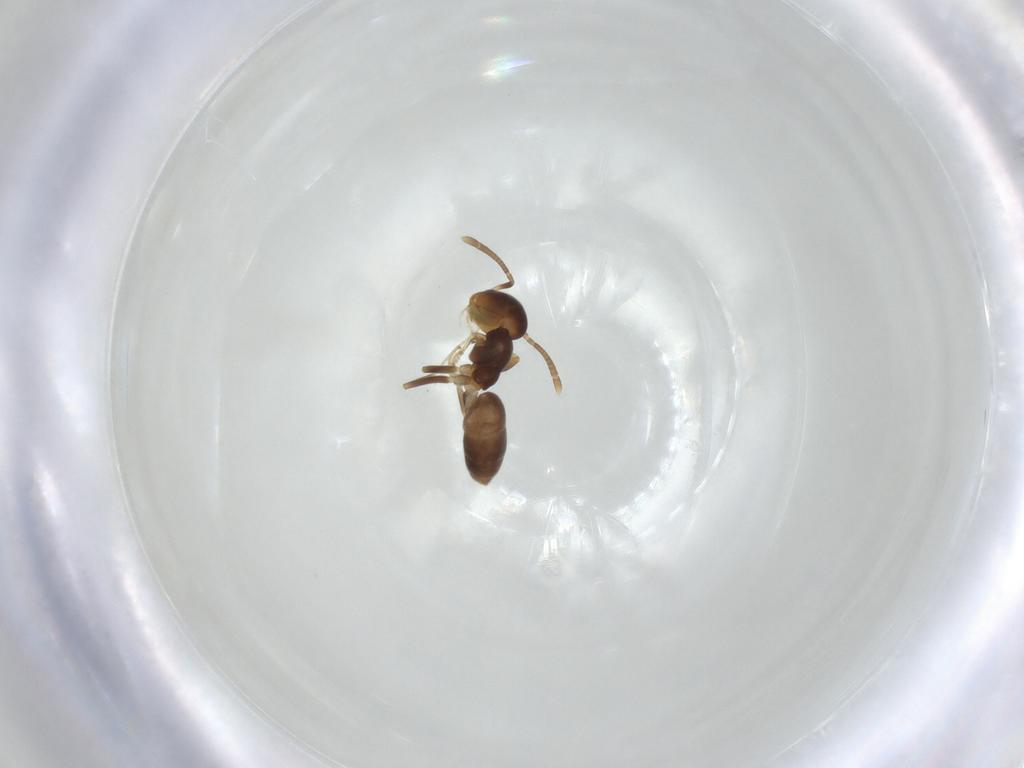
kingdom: Animalia
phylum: Arthropoda
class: Insecta
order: Hymenoptera
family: Formicidae
